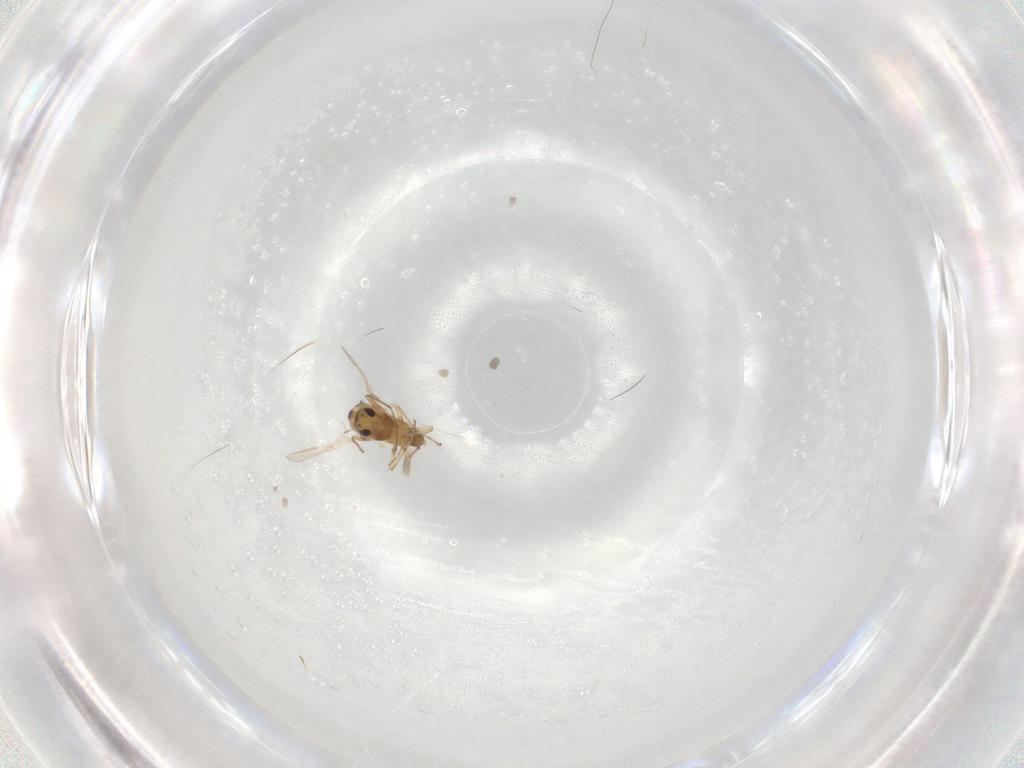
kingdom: Animalia
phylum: Arthropoda
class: Insecta
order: Diptera
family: Chironomidae
